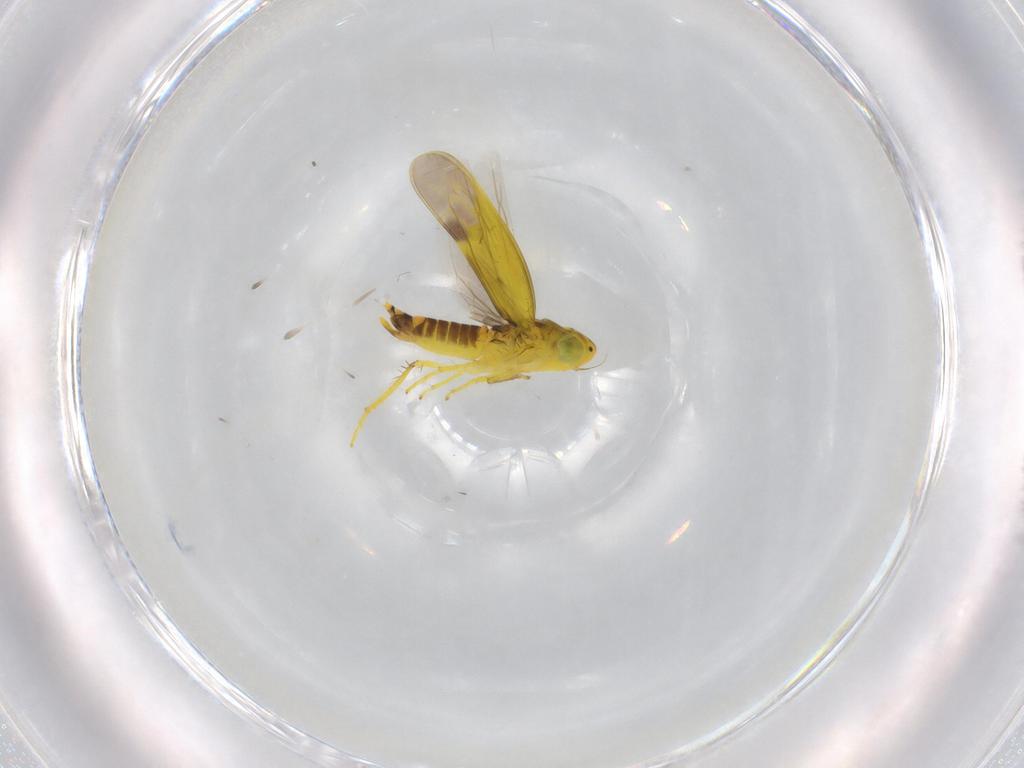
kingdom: Animalia
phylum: Arthropoda
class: Insecta
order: Hemiptera
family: Cicadellidae
